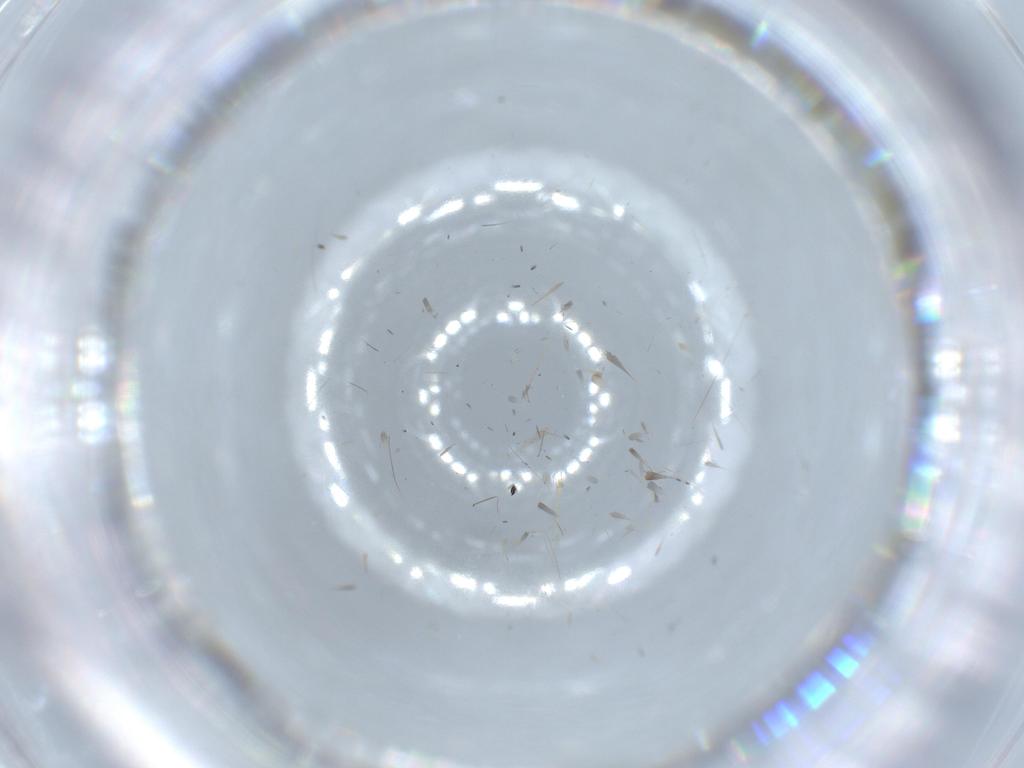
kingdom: Animalia
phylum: Arthropoda
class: Insecta
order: Diptera
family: Cecidomyiidae
